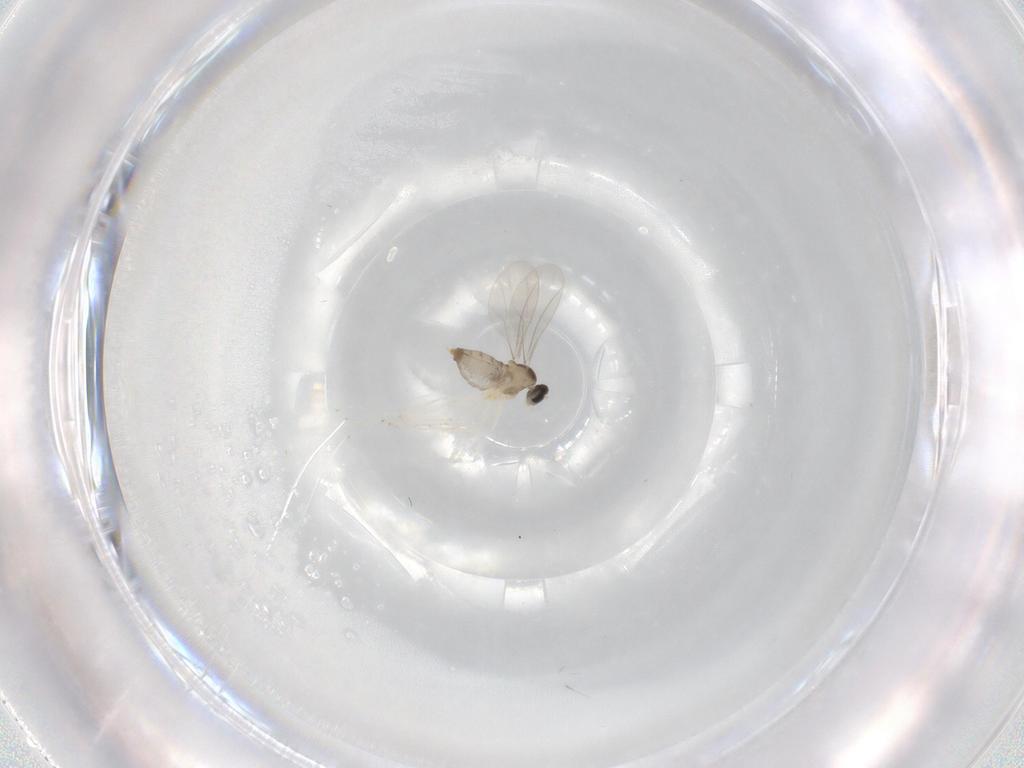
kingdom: Animalia
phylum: Arthropoda
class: Insecta
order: Diptera
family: Cecidomyiidae
